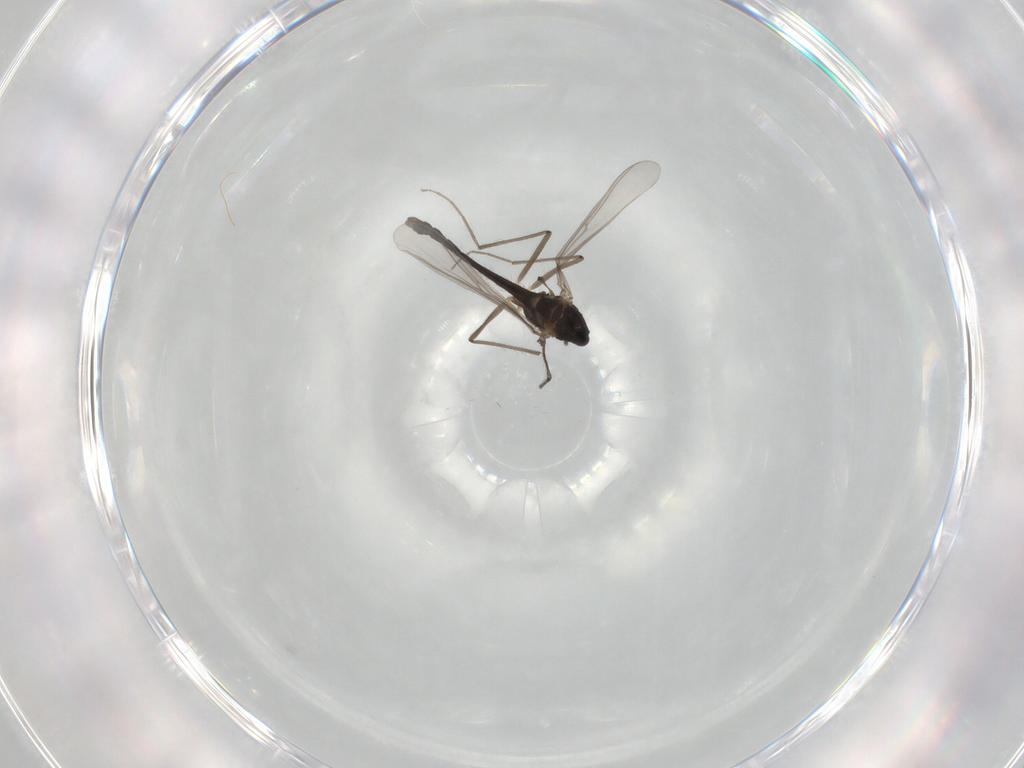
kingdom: Animalia
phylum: Arthropoda
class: Insecta
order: Diptera
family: Chironomidae
